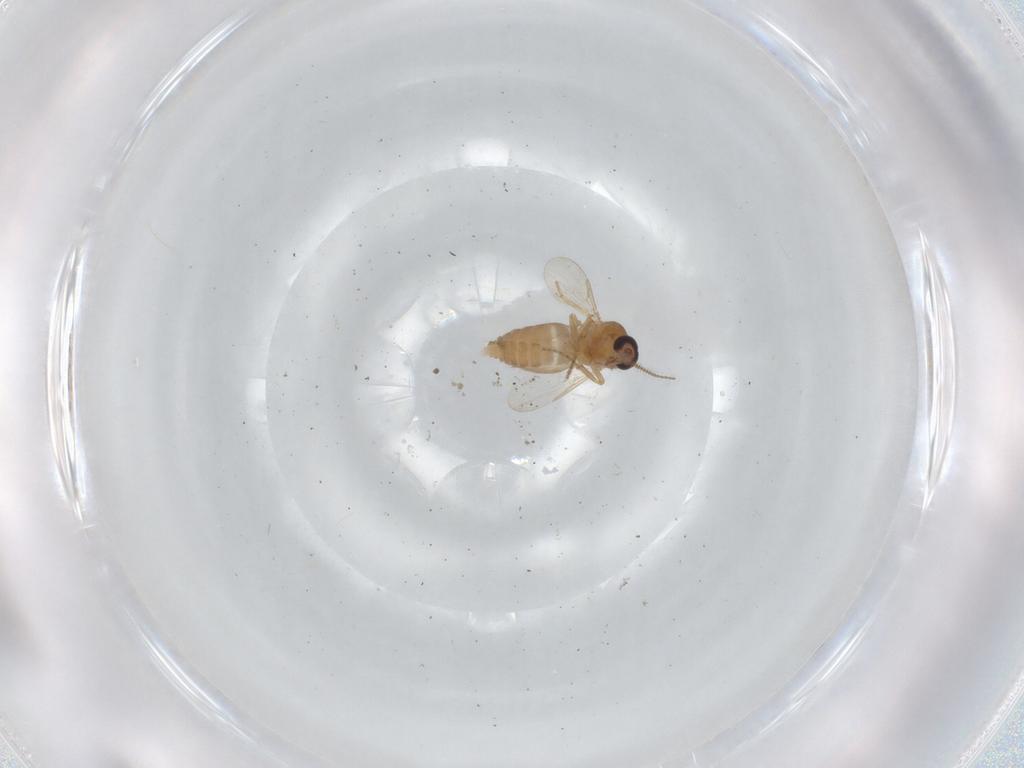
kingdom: Animalia
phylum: Arthropoda
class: Insecta
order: Diptera
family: Ceratopogonidae
